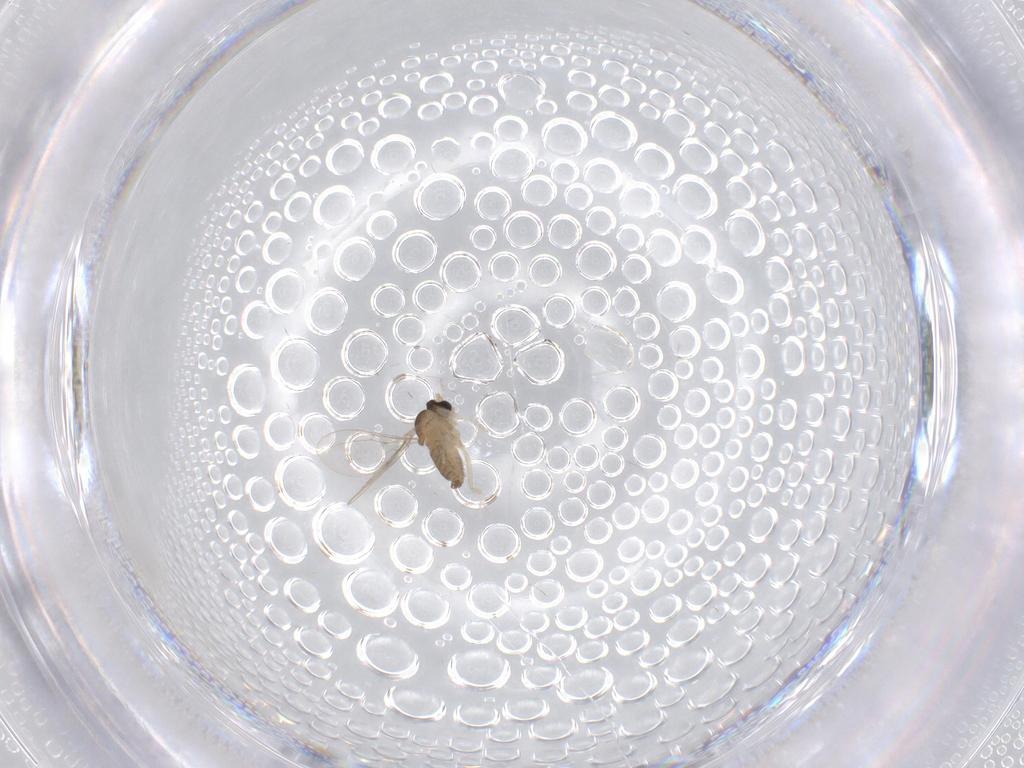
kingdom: Animalia
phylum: Arthropoda
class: Insecta
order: Diptera
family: Cecidomyiidae
